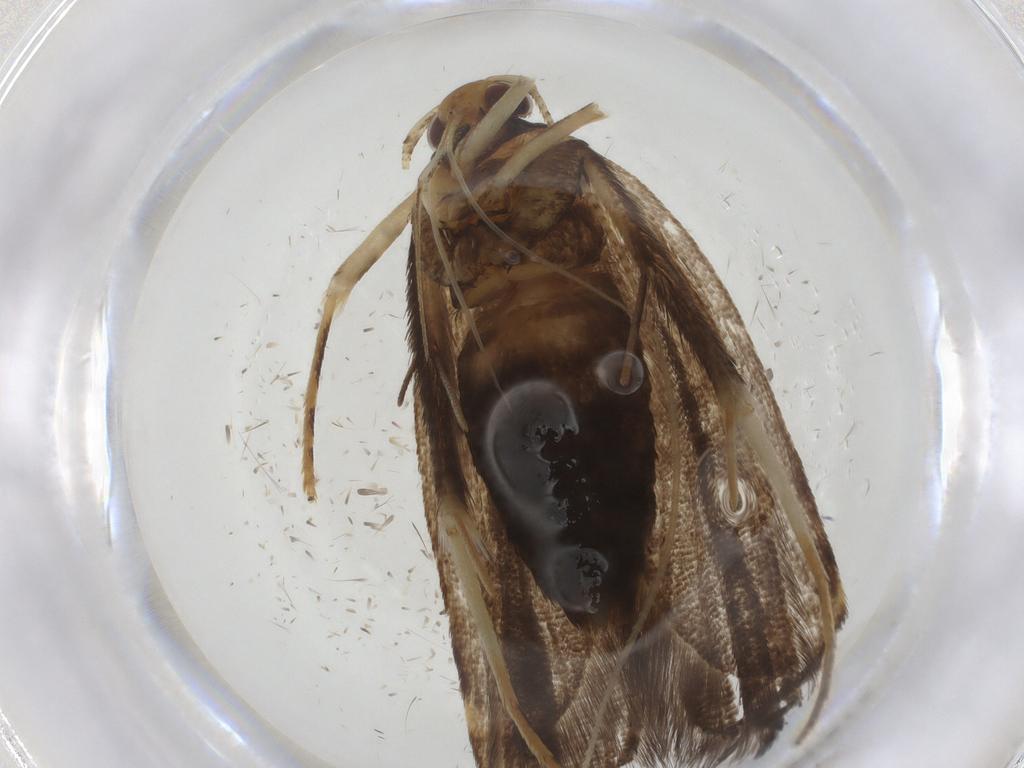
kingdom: Animalia
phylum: Arthropoda
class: Insecta
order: Lepidoptera
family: Lecithoceridae
